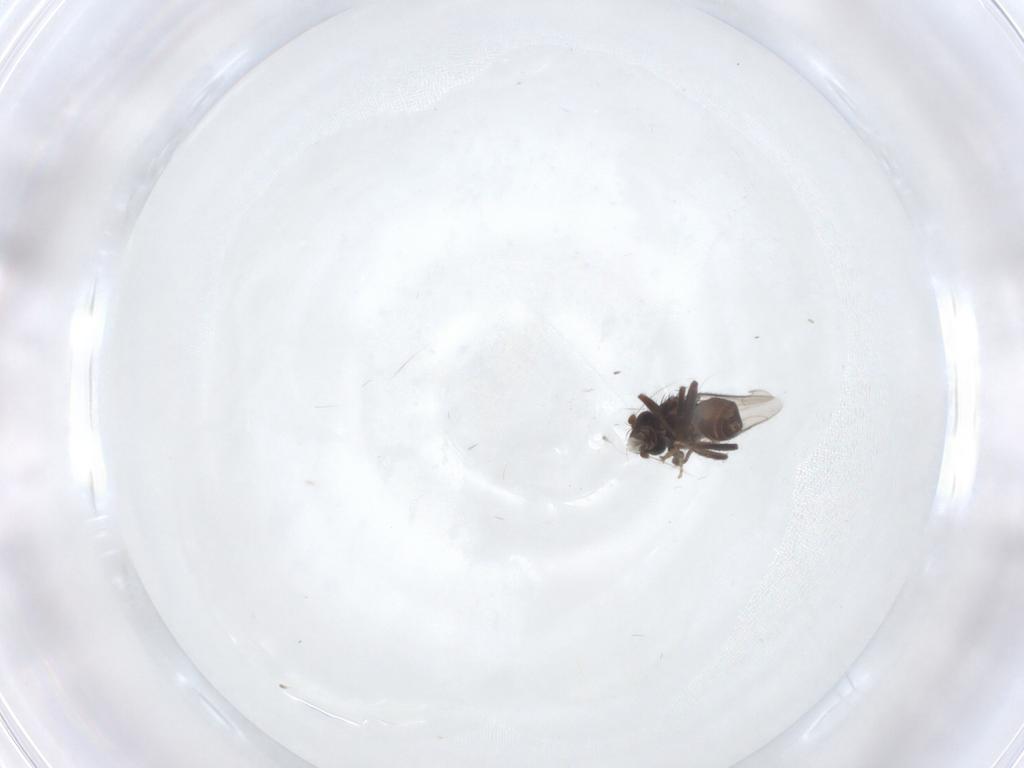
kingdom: Animalia
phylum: Arthropoda
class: Insecta
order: Diptera
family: Sphaeroceridae
